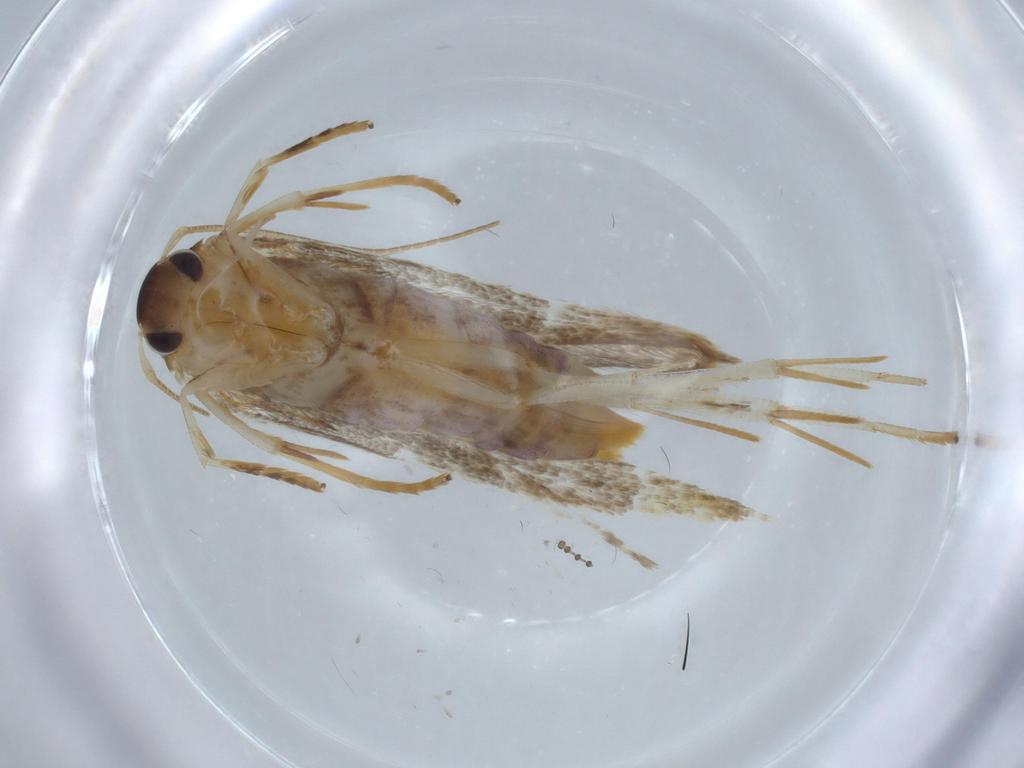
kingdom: Animalia
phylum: Arthropoda
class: Insecta
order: Lepidoptera
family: Stathmopodidae
